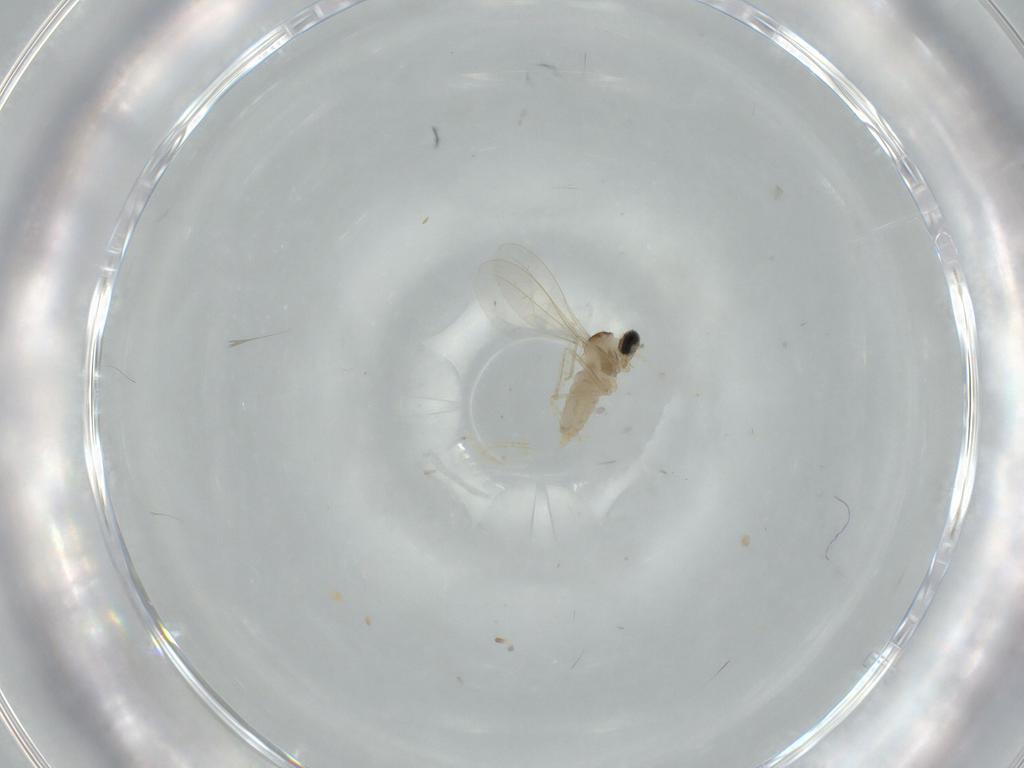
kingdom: Animalia
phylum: Arthropoda
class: Insecta
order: Diptera
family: Cecidomyiidae
